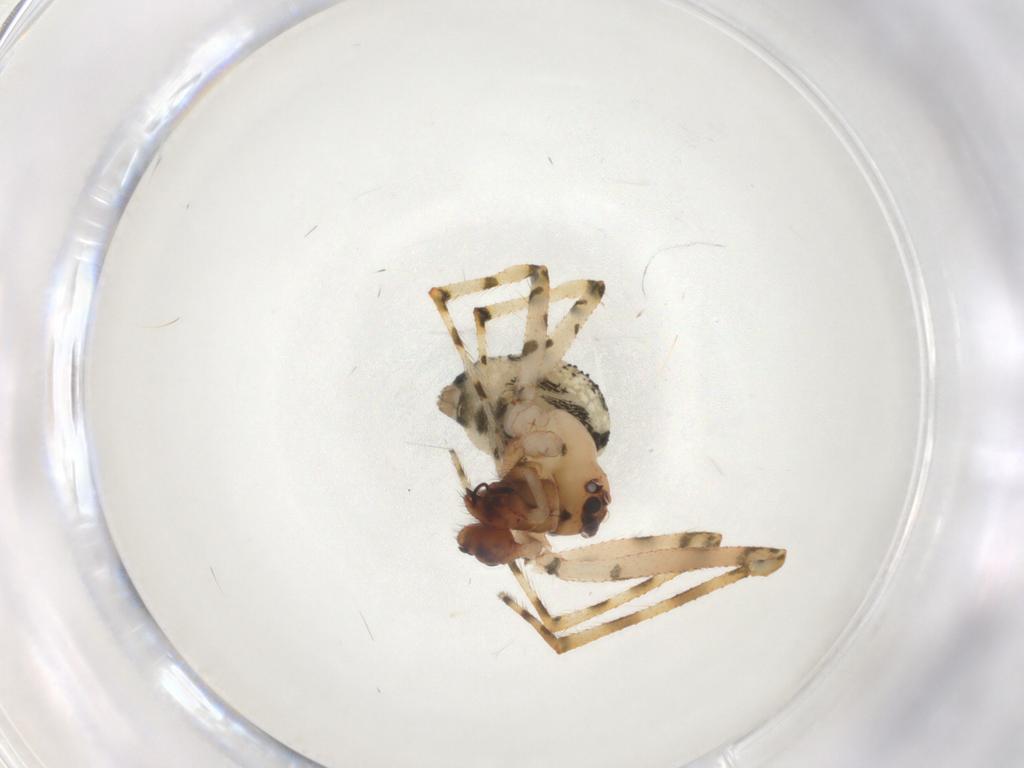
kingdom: Animalia
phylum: Arthropoda
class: Arachnida
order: Araneae
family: Theridiidae
